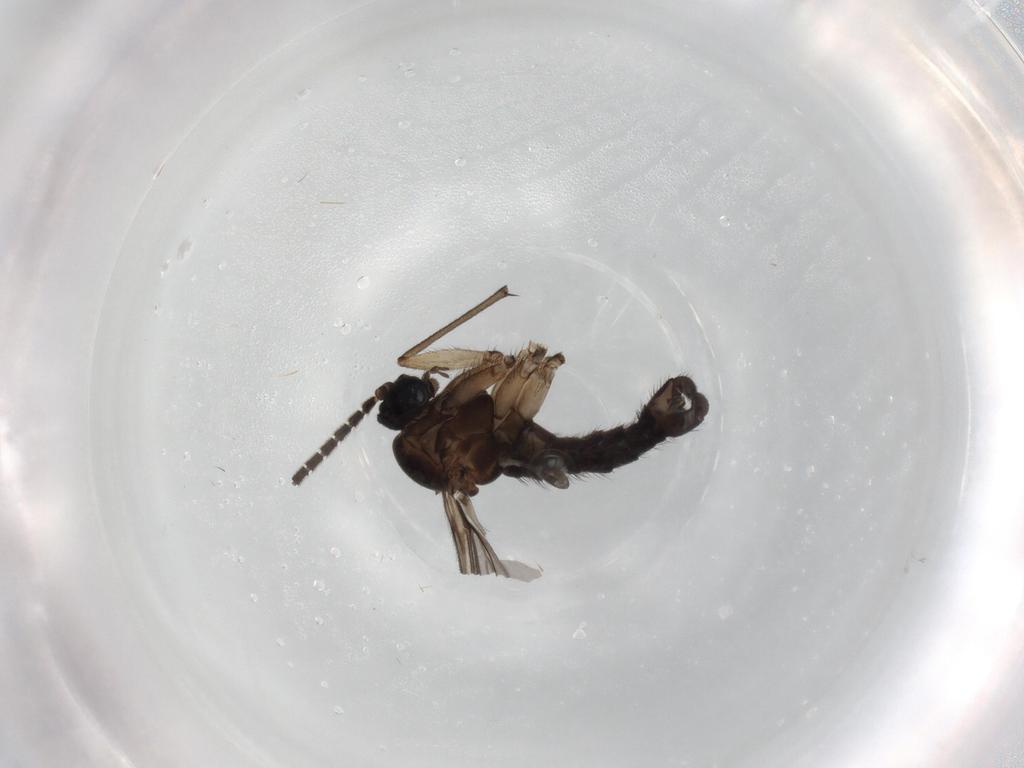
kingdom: Animalia
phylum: Arthropoda
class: Insecta
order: Diptera
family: Sciaridae
